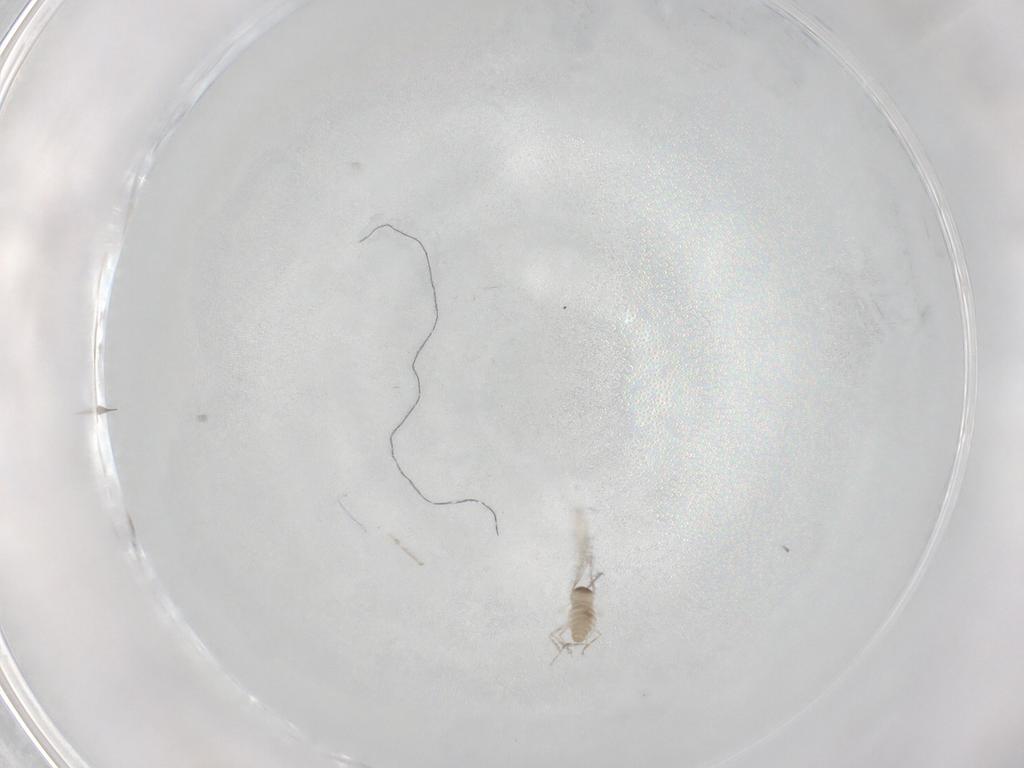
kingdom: Animalia
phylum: Arthropoda
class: Insecta
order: Diptera
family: Cecidomyiidae
